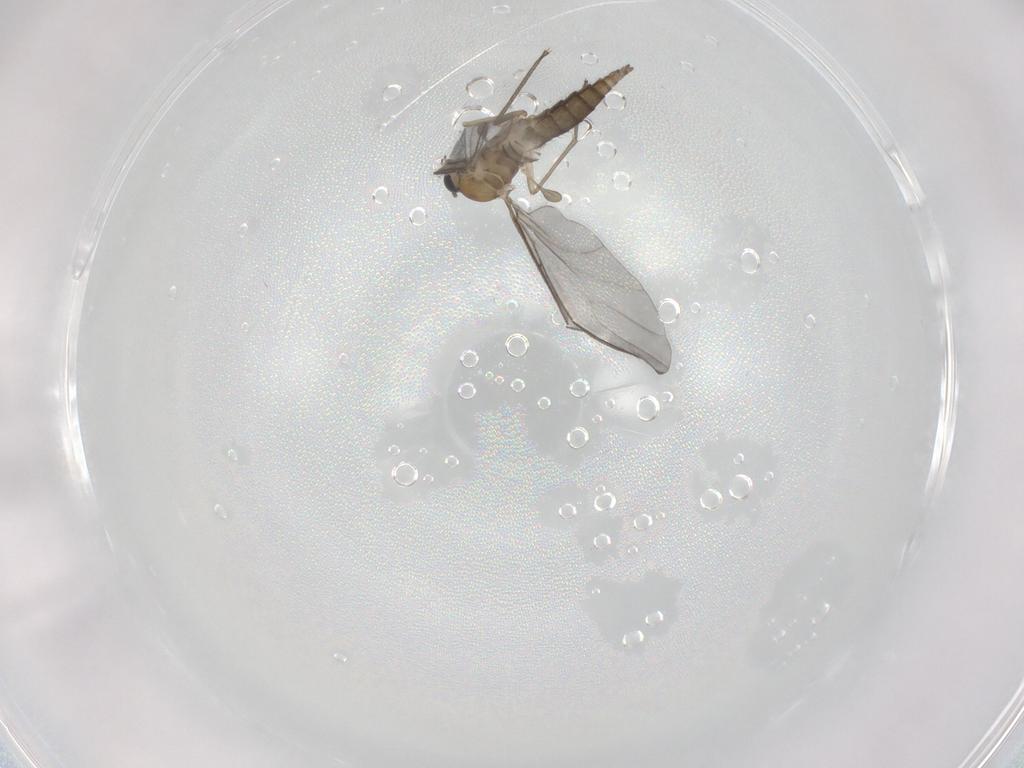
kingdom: Animalia
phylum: Arthropoda
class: Insecta
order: Diptera
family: Sciaridae
